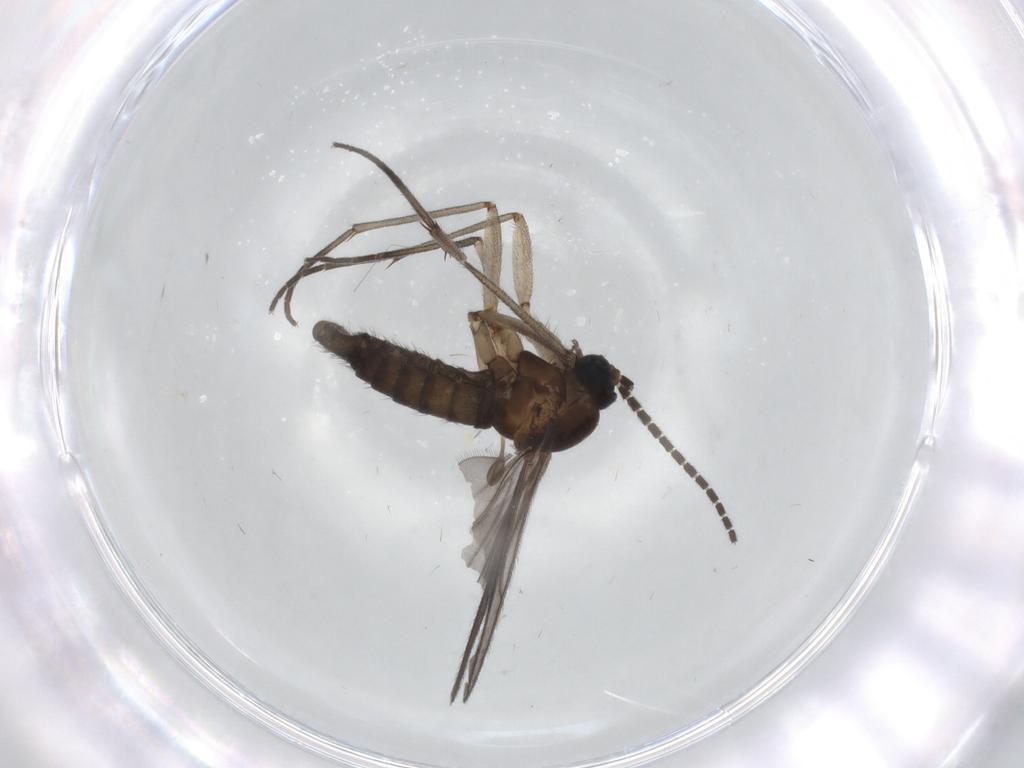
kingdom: Animalia
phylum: Arthropoda
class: Insecta
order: Diptera
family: Sciaridae
